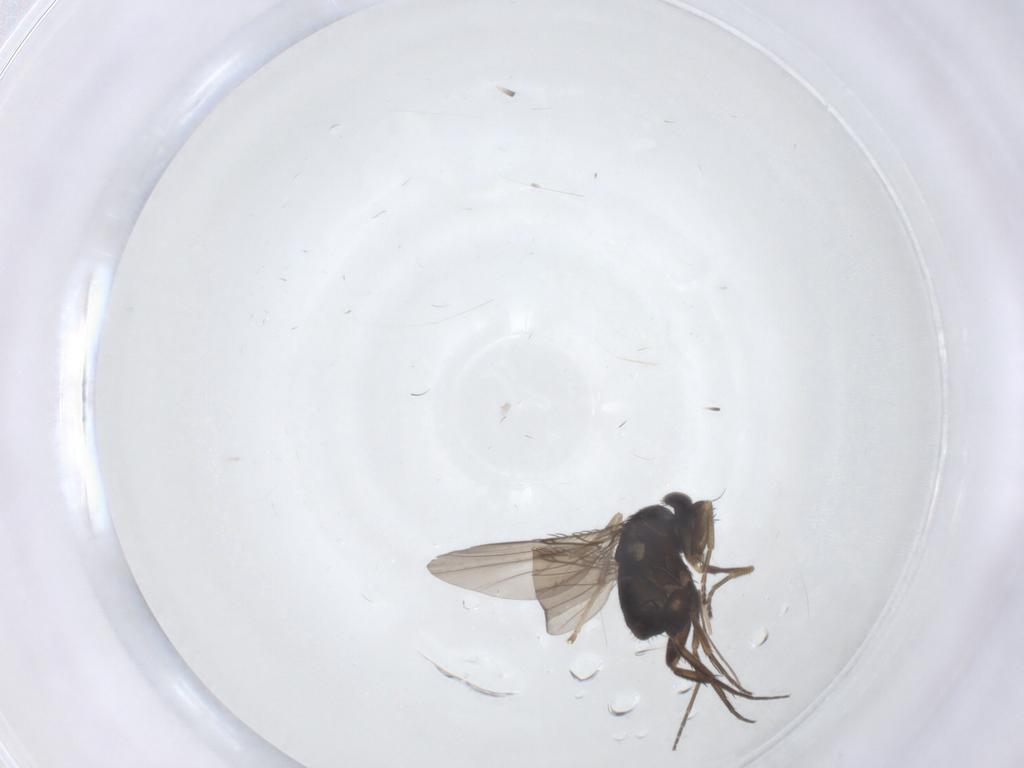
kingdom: Animalia
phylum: Arthropoda
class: Insecta
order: Diptera
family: Phoridae
